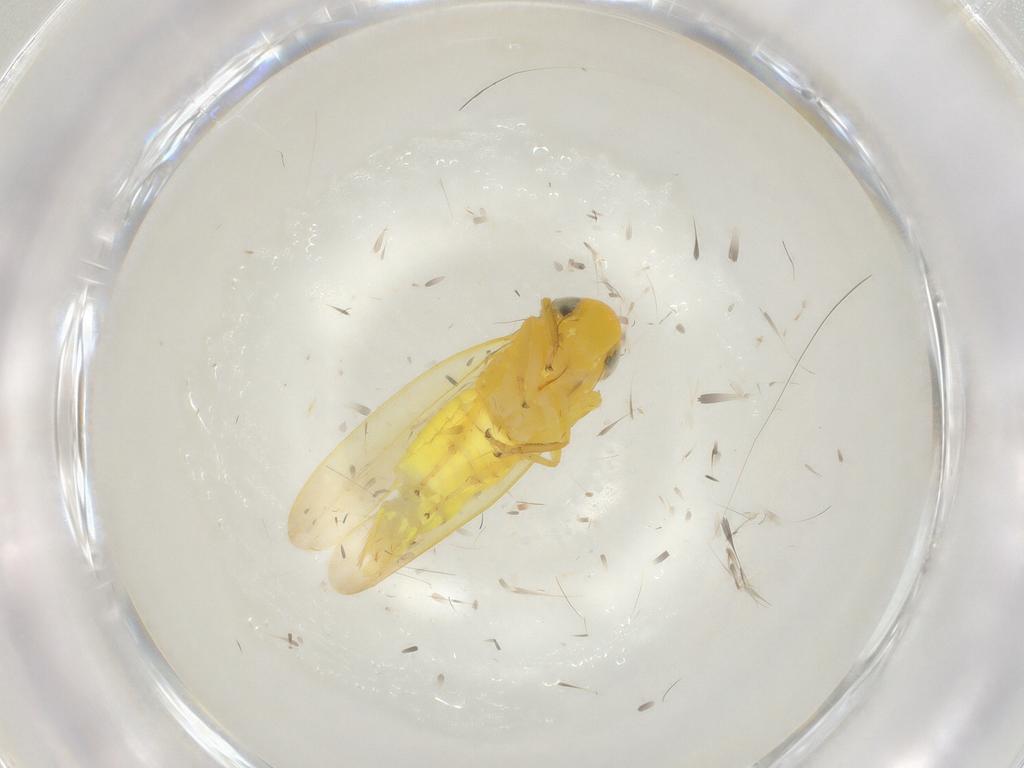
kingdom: Animalia
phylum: Arthropoda
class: Insecta
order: Hemiptera
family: Cicadellidae
